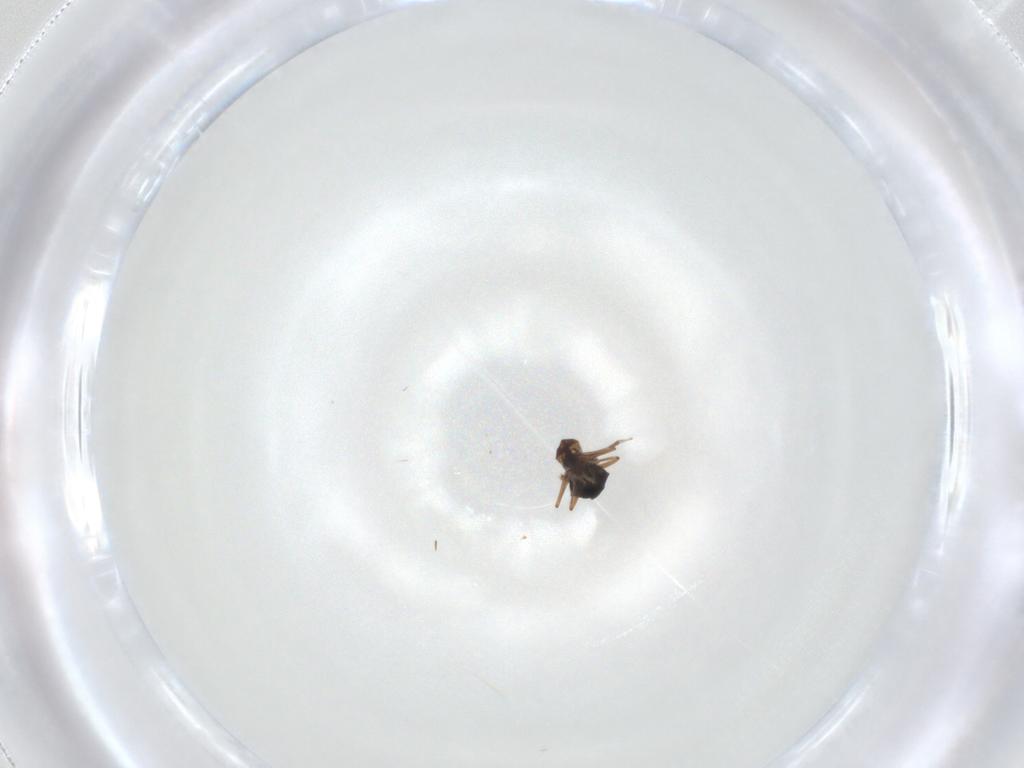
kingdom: Animalia
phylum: Arthropoda
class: Insecta
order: Diptera
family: Ceratopogonidae
